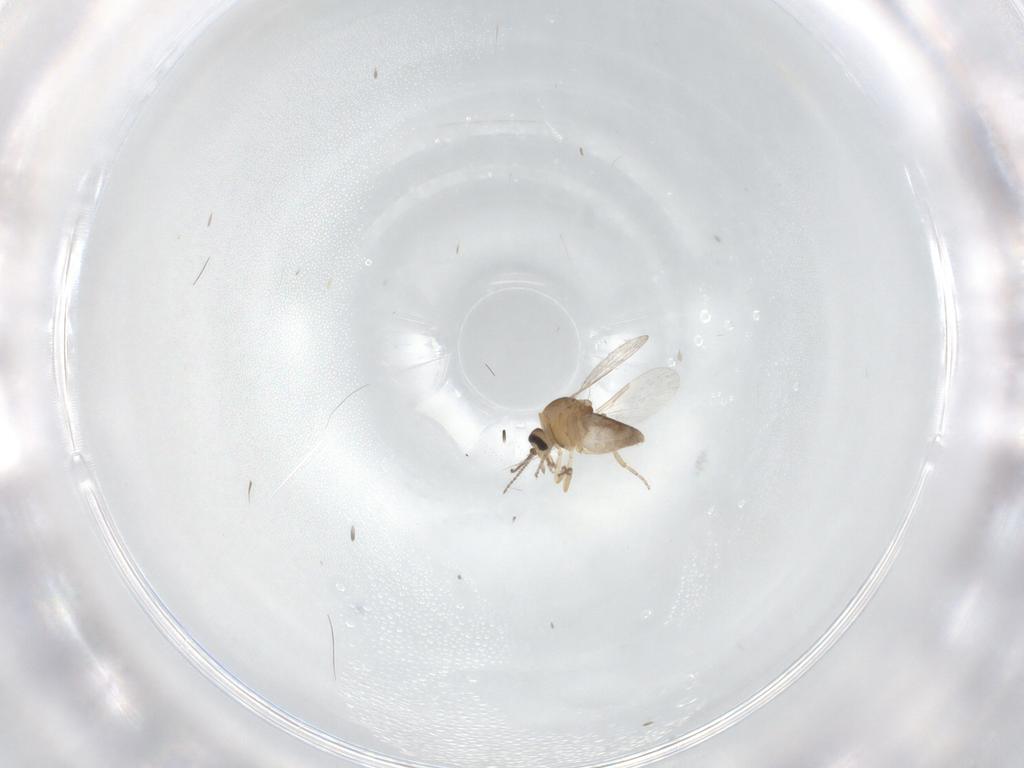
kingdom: Animalia
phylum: Arthropoda
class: Insecta
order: Diptera
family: Ceratopogonidae
